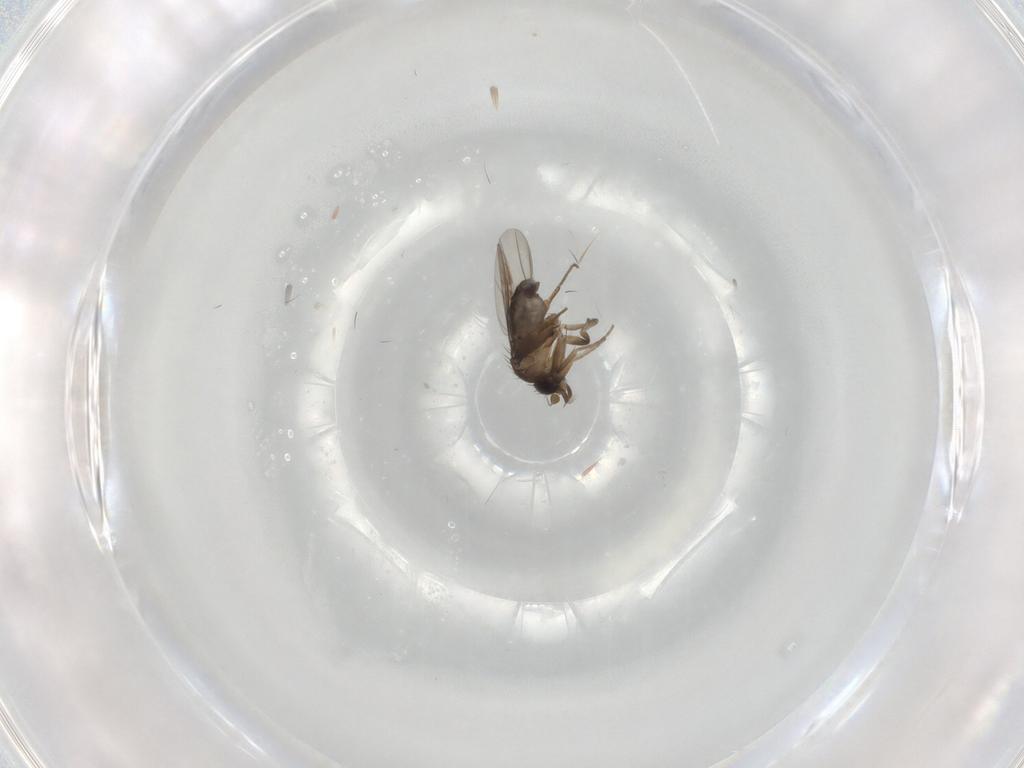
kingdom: Animalia
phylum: Arthropoda
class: Insecta
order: Diptera
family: Phoridae
